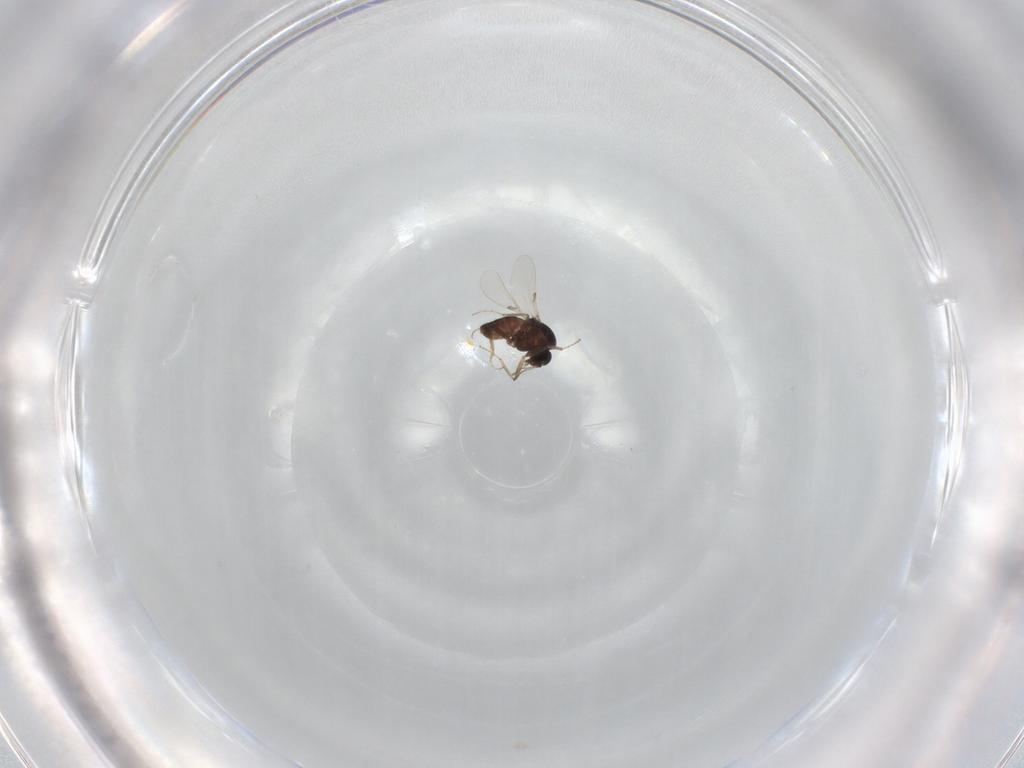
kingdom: Animalia
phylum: Arthropoda
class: Insecta
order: Diptera
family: Ceratopogonidae
